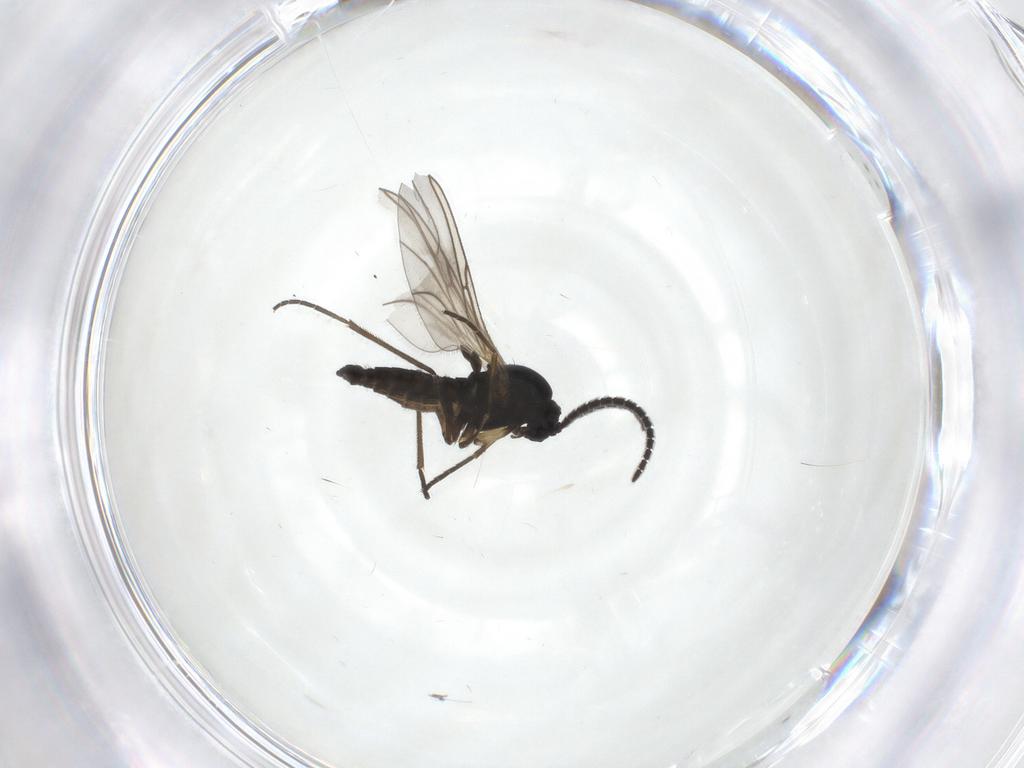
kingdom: Animalia
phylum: Arthropoda
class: Insecta
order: Diptera
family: Sciaridae
